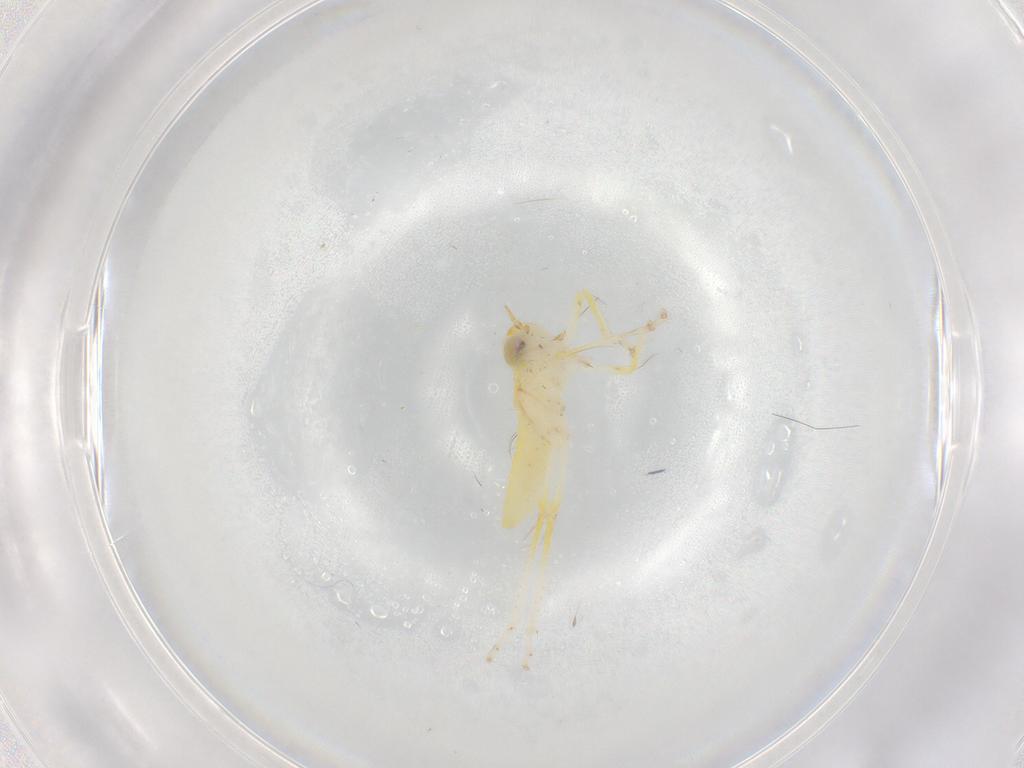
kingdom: Animalia
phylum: Arthropoda
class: Insecta
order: Hemiptera
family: Cicadellidae
